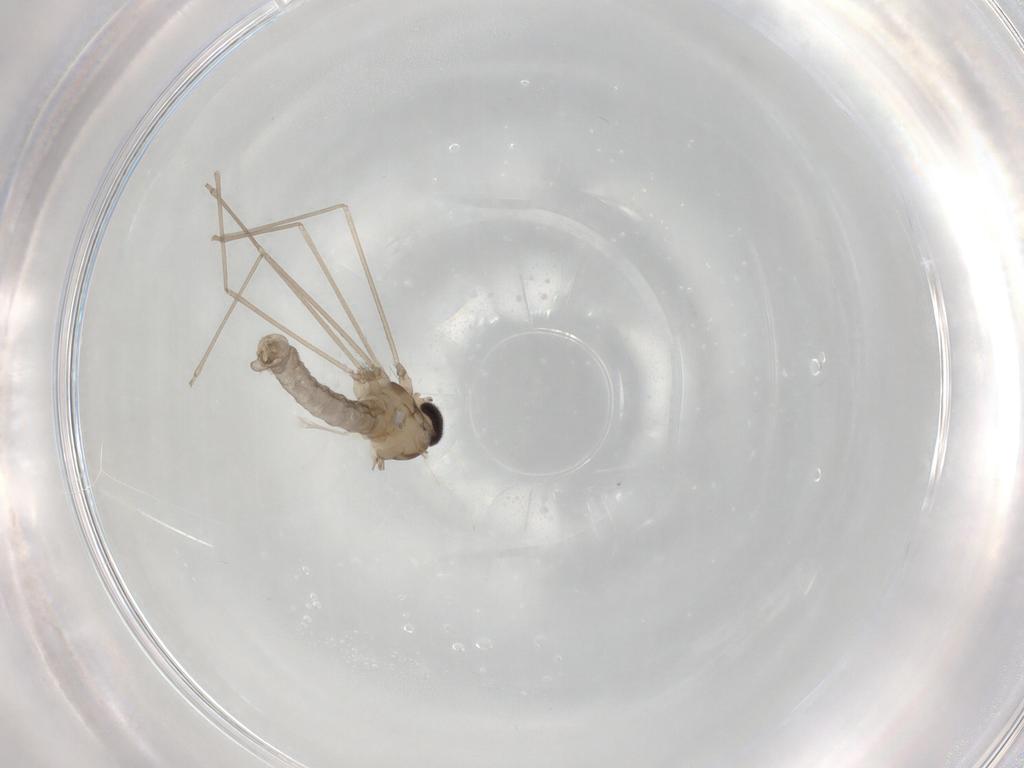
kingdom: Animalia
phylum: Arthropoda
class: Insecta
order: Diptera
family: Cecidomyiidae
